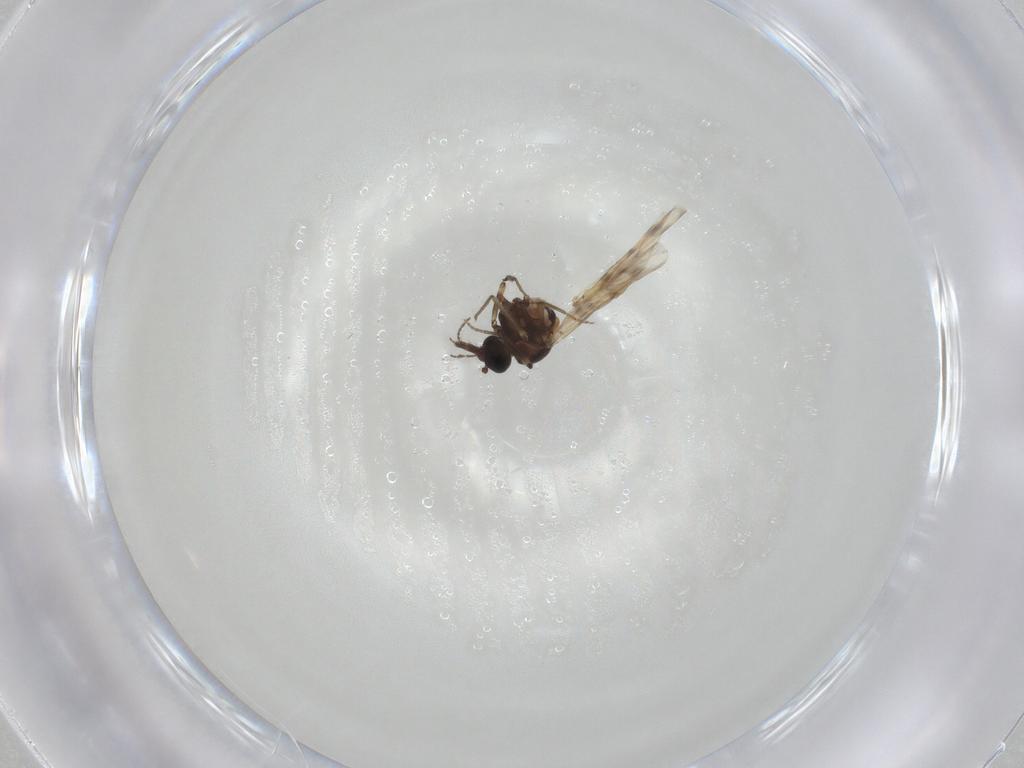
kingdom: Animalia
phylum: Arthropoda
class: Insecta
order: Diptera
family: Ceratopogonidae
